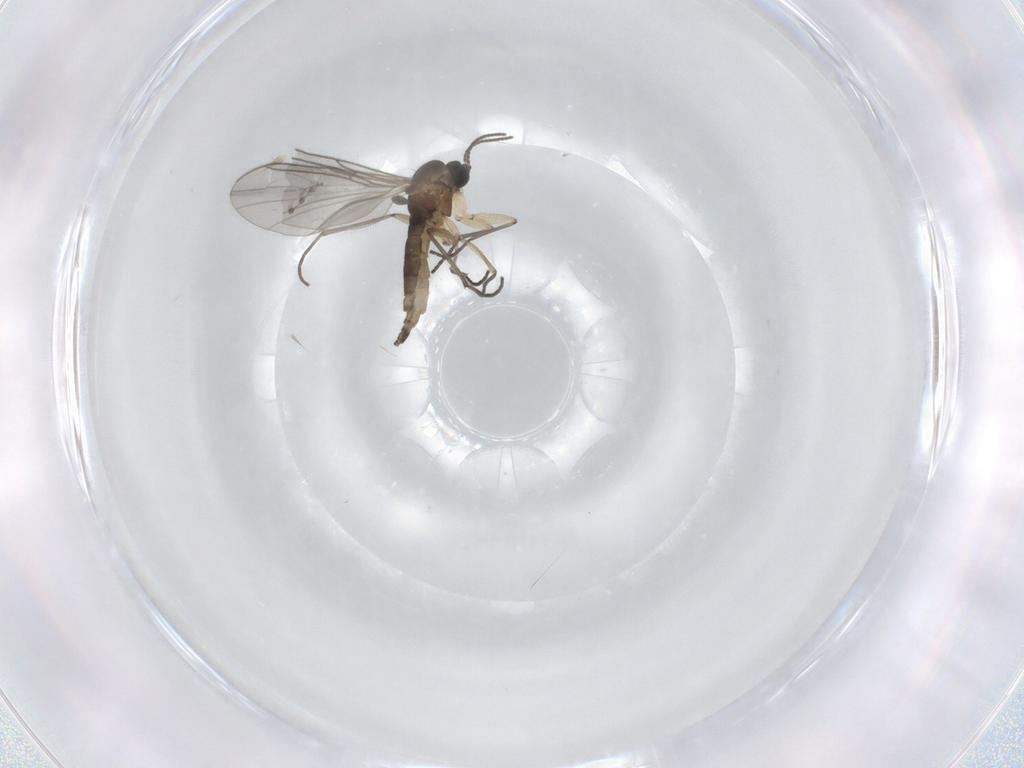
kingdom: Animalia
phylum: Arthropoda
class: Insecta
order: Diptera
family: Sciaridae
